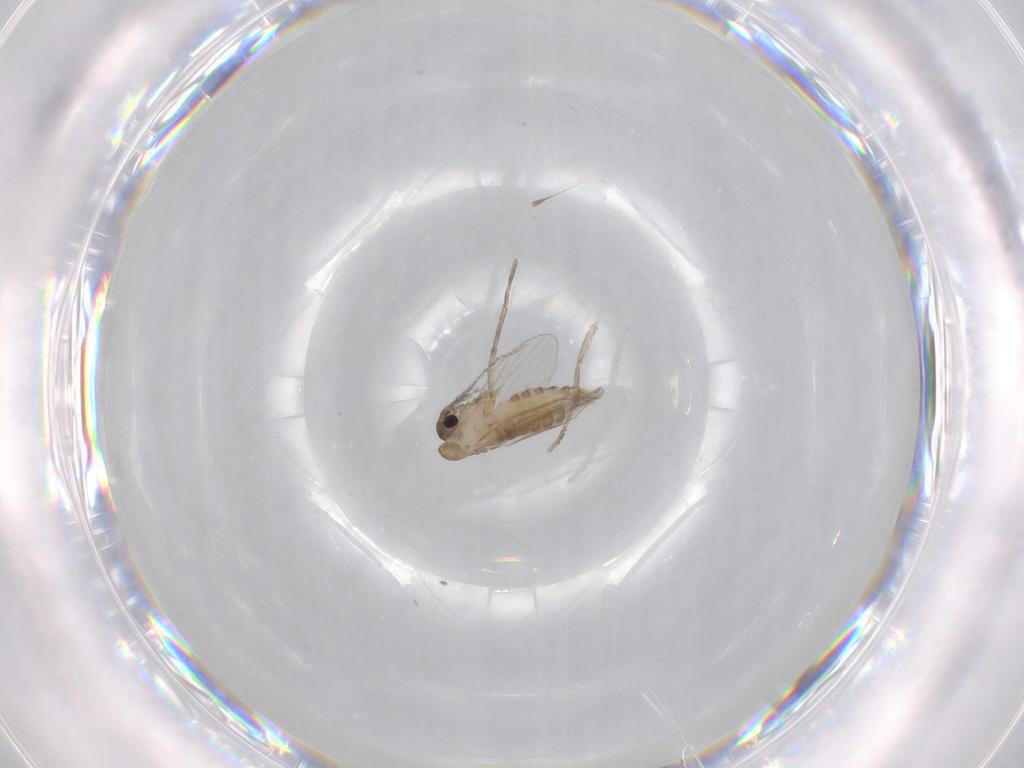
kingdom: Animalia
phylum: Arthropoda
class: Insecta
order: Diptera
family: Psychodidae
